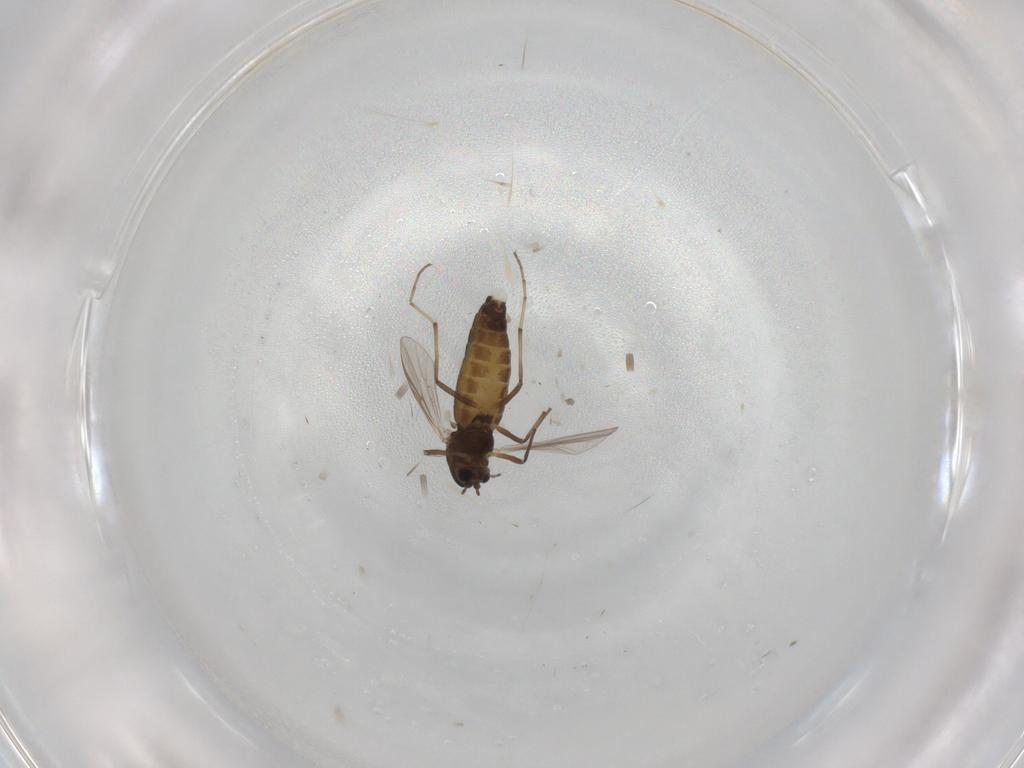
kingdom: Animalia
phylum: Arthropoda
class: Insecta
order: Diptera
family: Chironomidae
